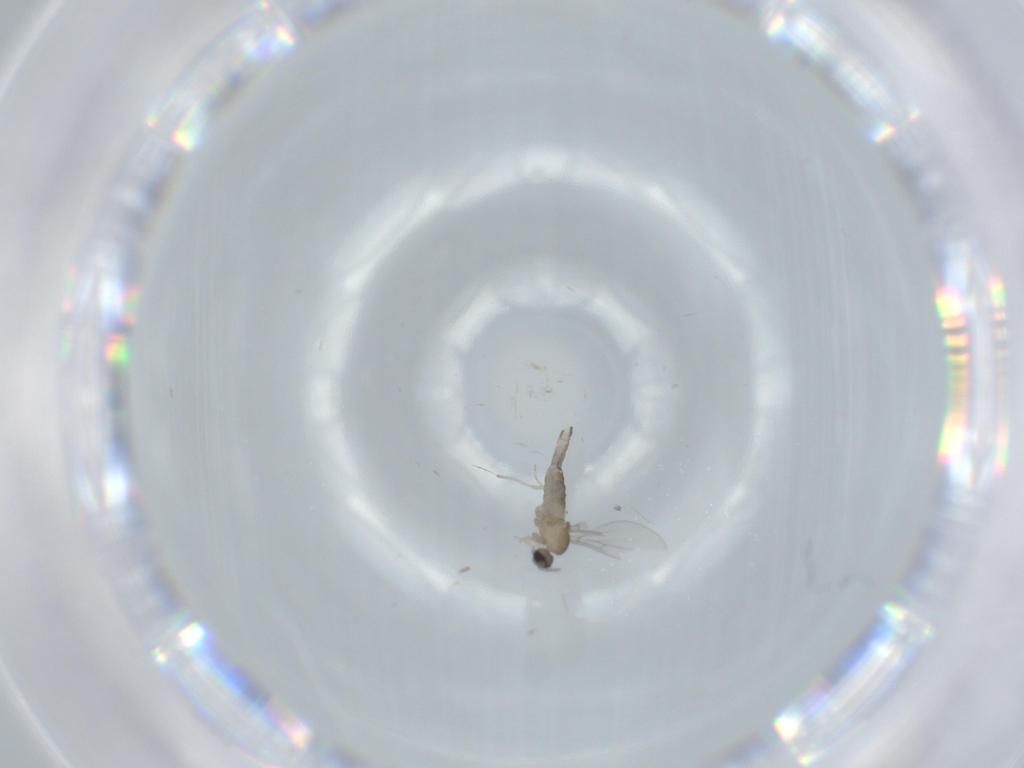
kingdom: Animalia
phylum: Arthropoda
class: Insecta
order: Diptera
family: Cecidomyiidae
